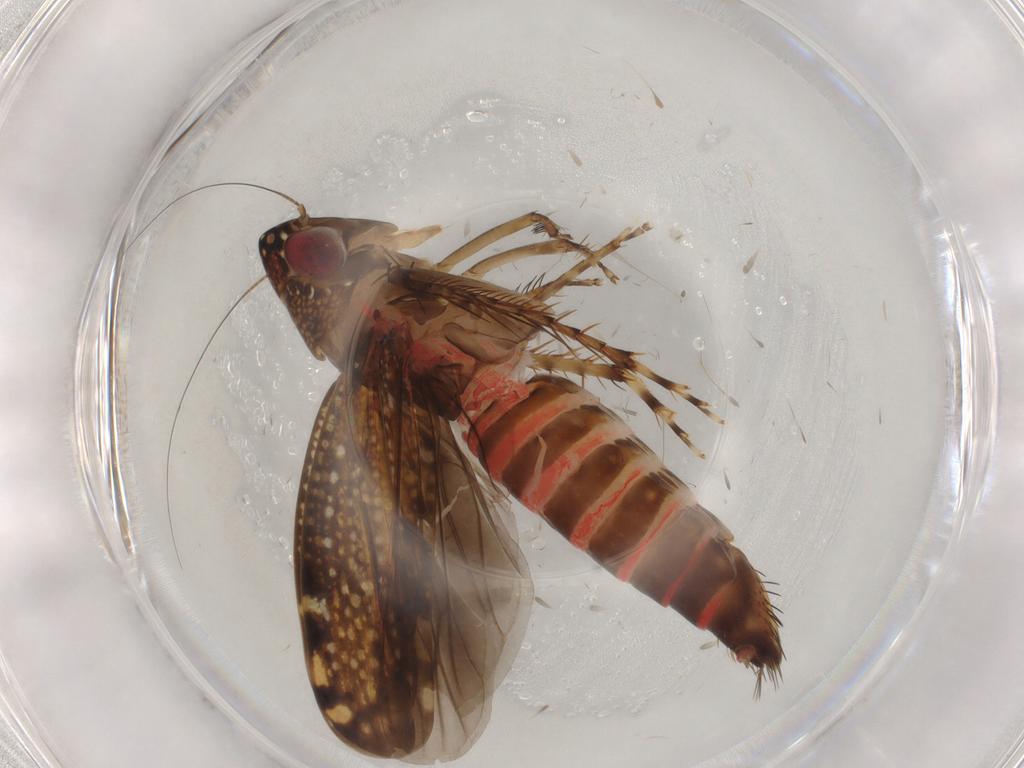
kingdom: Animalia
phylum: Arthropoda
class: Insecta
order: Hemiptera
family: Cicadellidae
